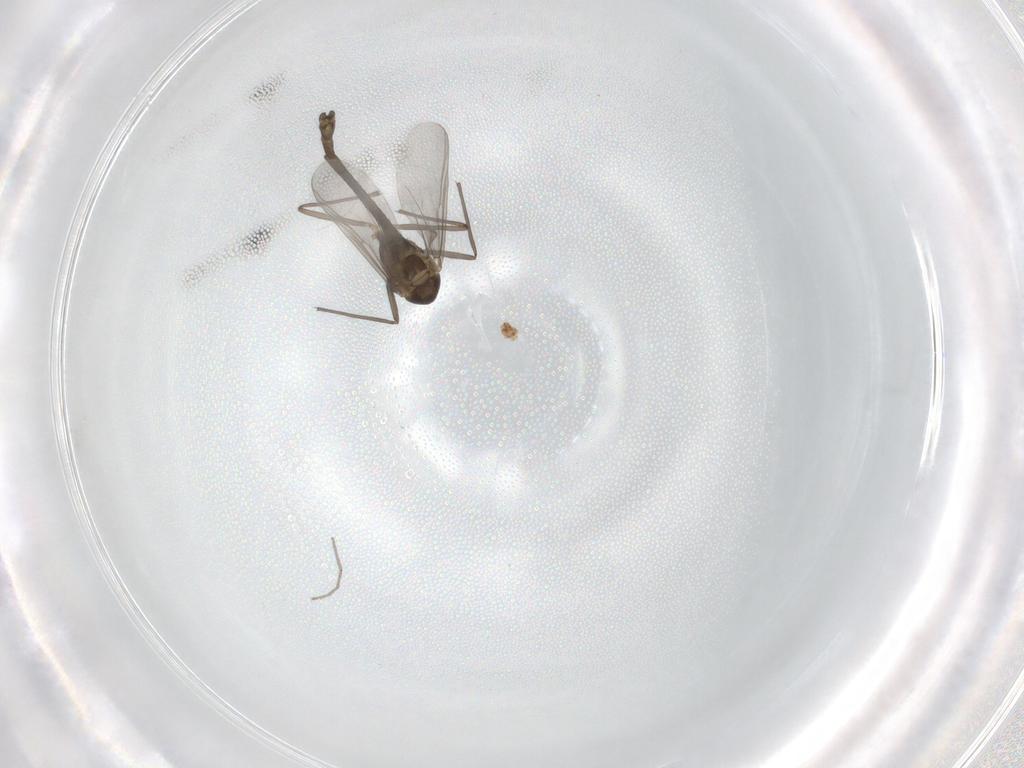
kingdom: Animalia
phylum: Arthropoda
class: Insecta
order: Diptera
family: Chironomidae
